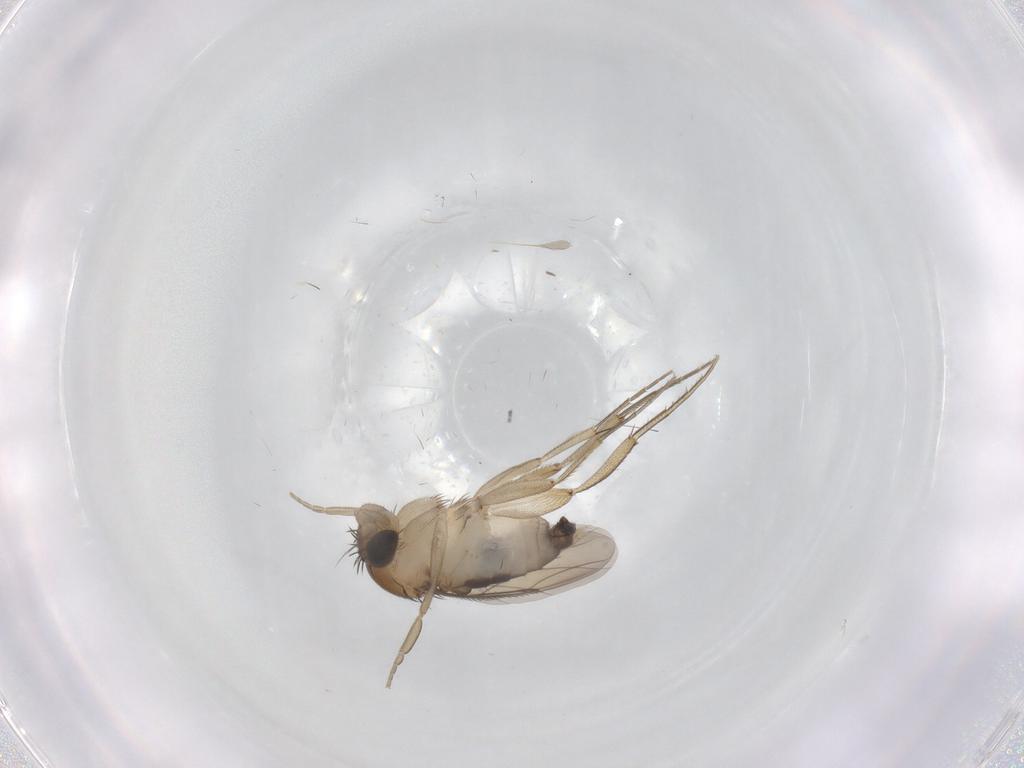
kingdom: Animalia
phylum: Arthropoda
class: Insecta
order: Diptera
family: Phoridae
